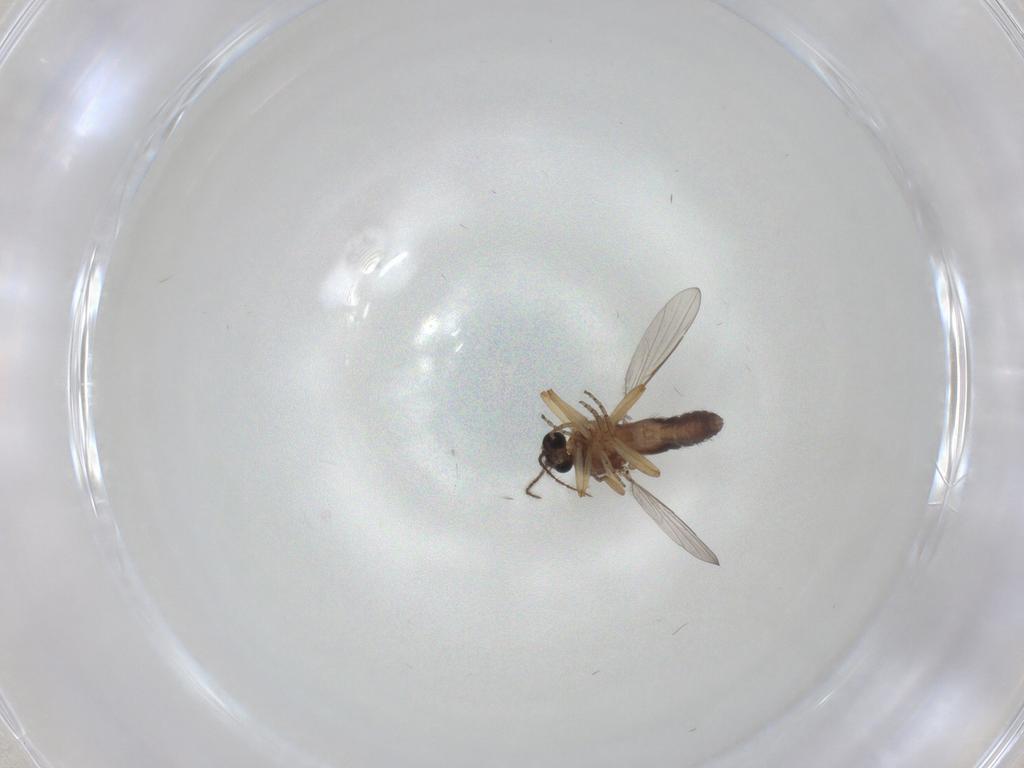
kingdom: Animalia
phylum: Arthropoda
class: Insecta
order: Diptera
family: Ceratopogonidae
